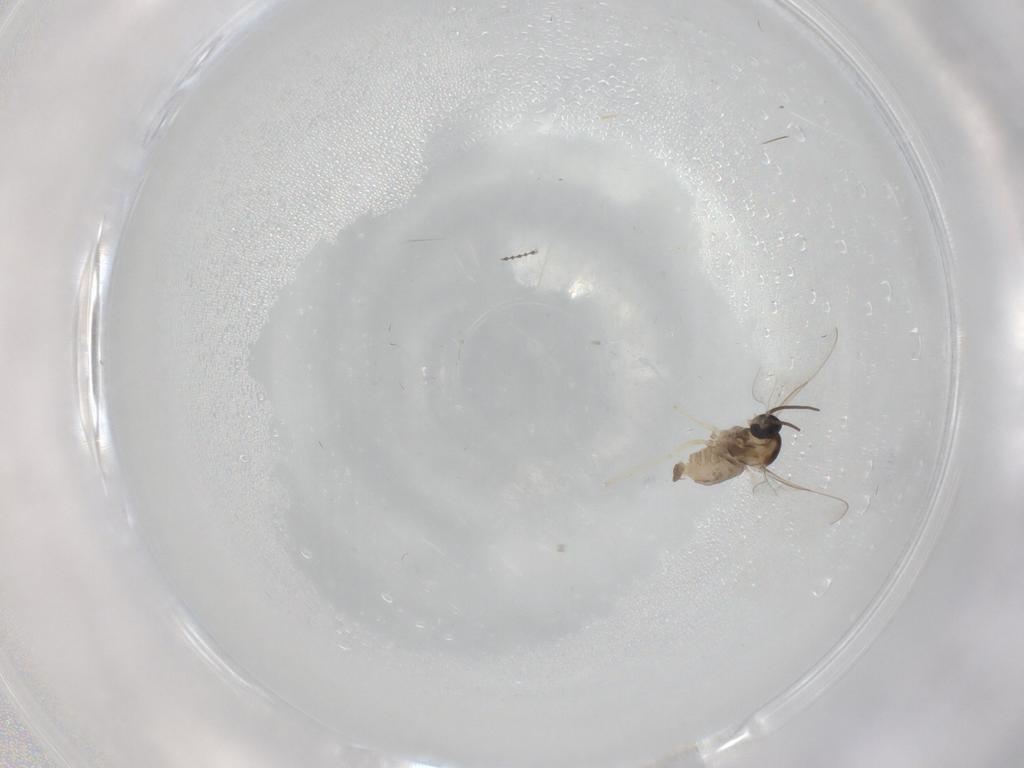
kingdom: Animalia
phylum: Arthropoda
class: Insecta
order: Diptera
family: Cecidomyiidae
